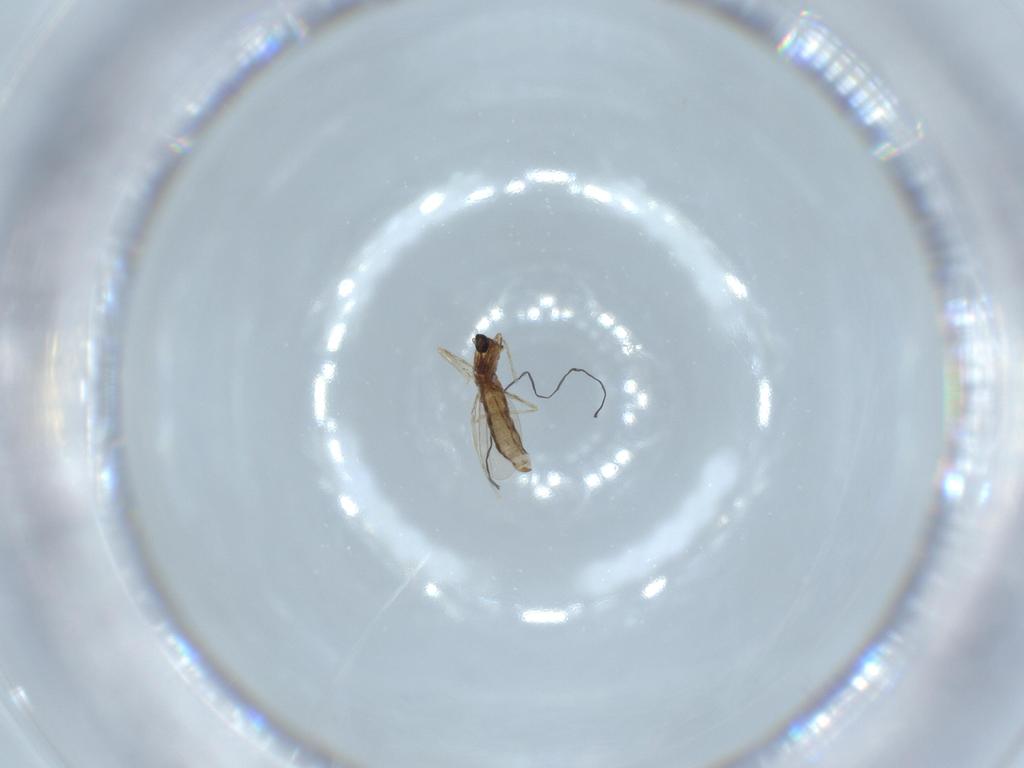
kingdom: Animalia
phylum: Arthropoda
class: Insecta
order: Diptera
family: Cecidomyiidae
